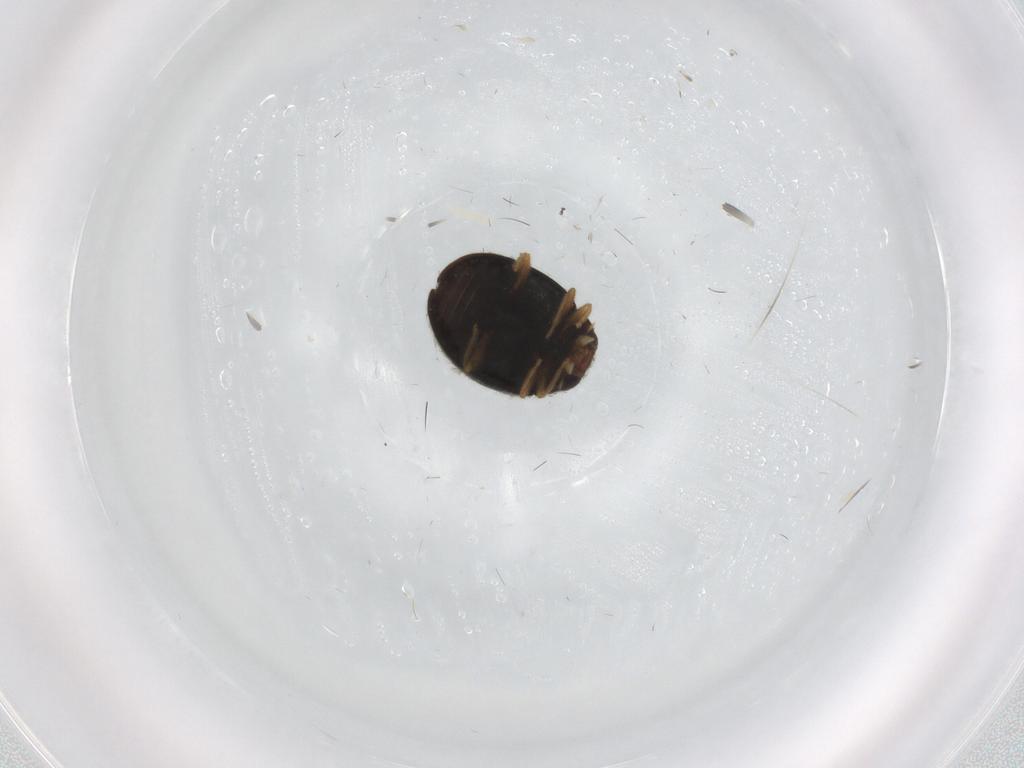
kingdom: Animalia
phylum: Arthropoda
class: Insecta
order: Coleoptera
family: Coccinellidae
